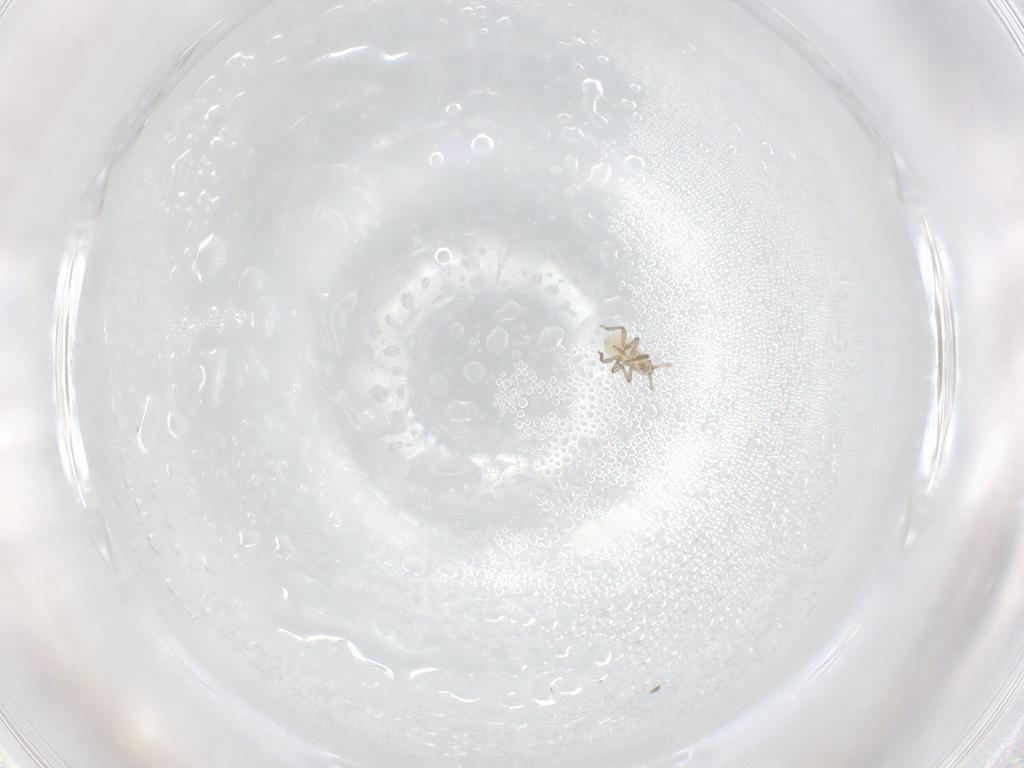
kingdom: Animalia
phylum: Arthropoda
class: Insecta
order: Hemiptera
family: Aphididae
